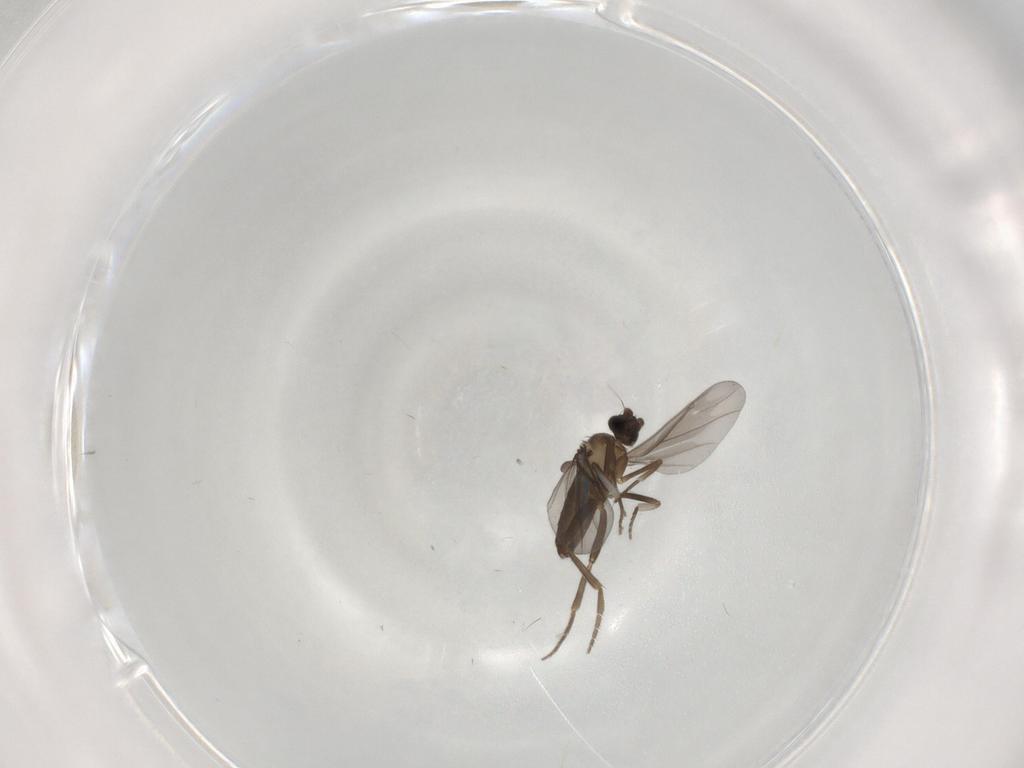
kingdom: Animalia
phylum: Arthropoda
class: Insecta
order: Diptera
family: Phoridae
